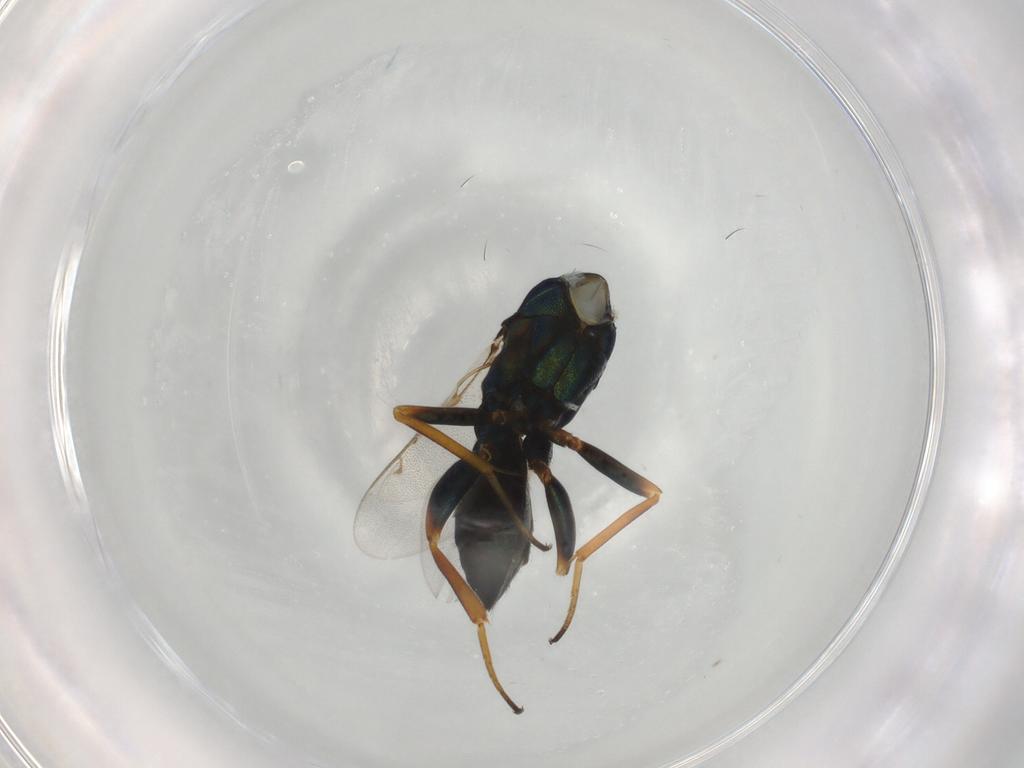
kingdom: Animalia
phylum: Arthropoda
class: Insecta
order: Hymenoptera
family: Eupelmidae
